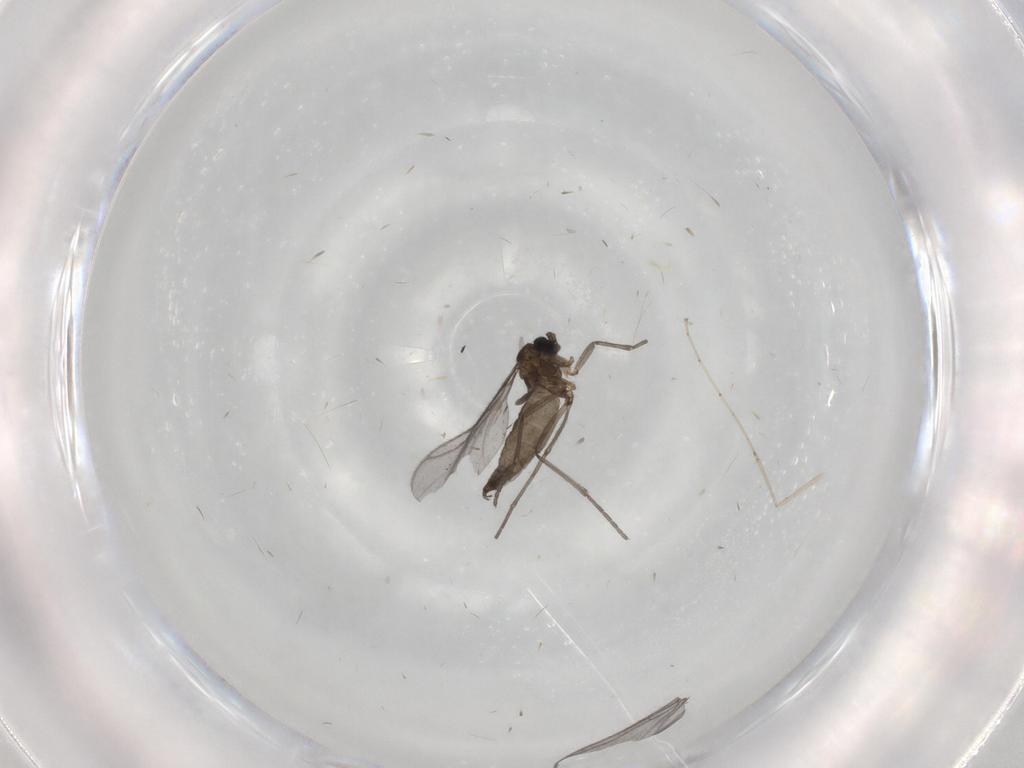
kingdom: Animalia
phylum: Arthropoda
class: Insecta
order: Diptera
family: Sciaridae
